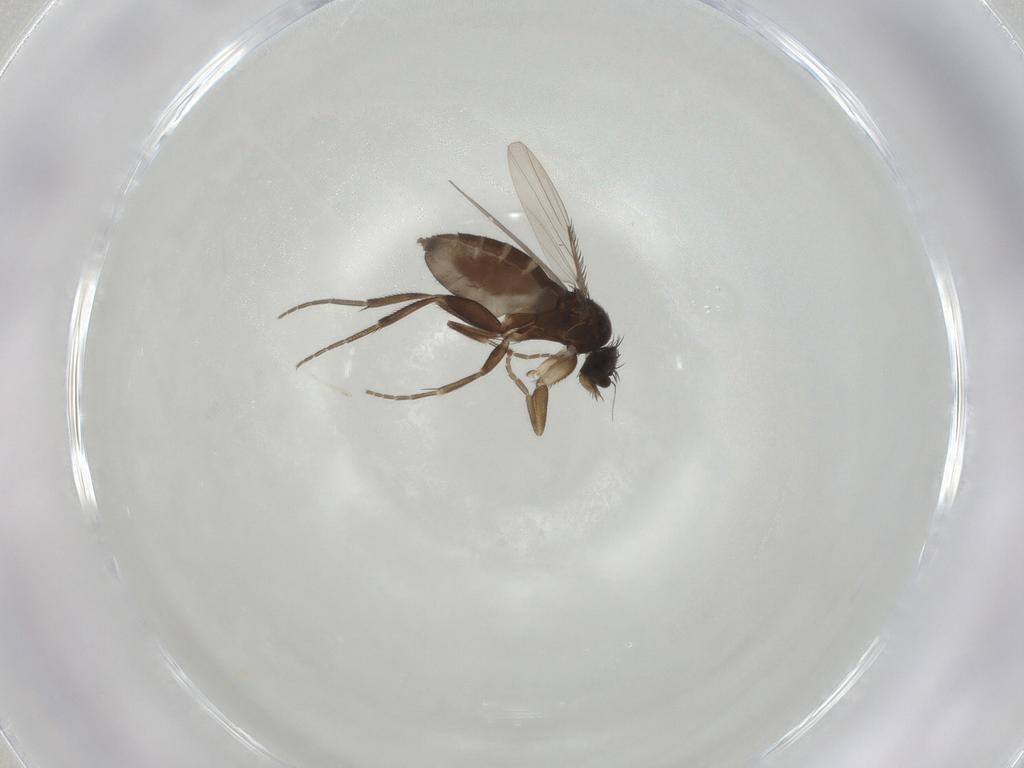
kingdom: Animalia
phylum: Arthropoda
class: Insecta
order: Diptera
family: Phoridae
